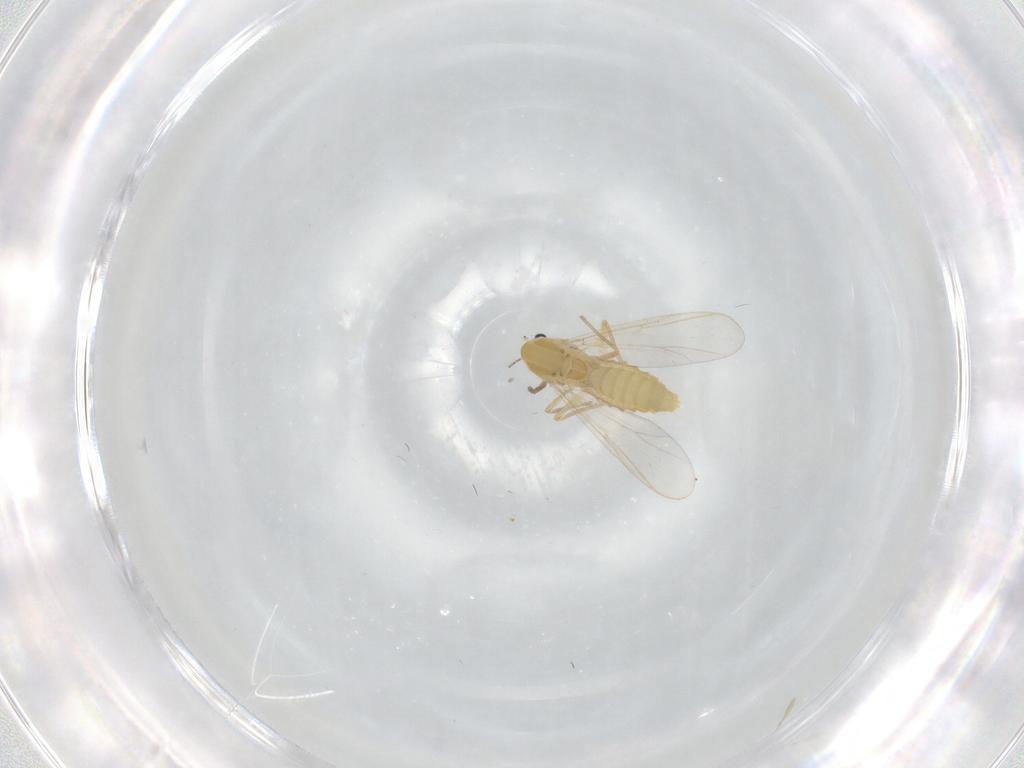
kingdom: Animalia
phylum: Arthropoda
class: Insecta
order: Diptera
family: Chironomidae
